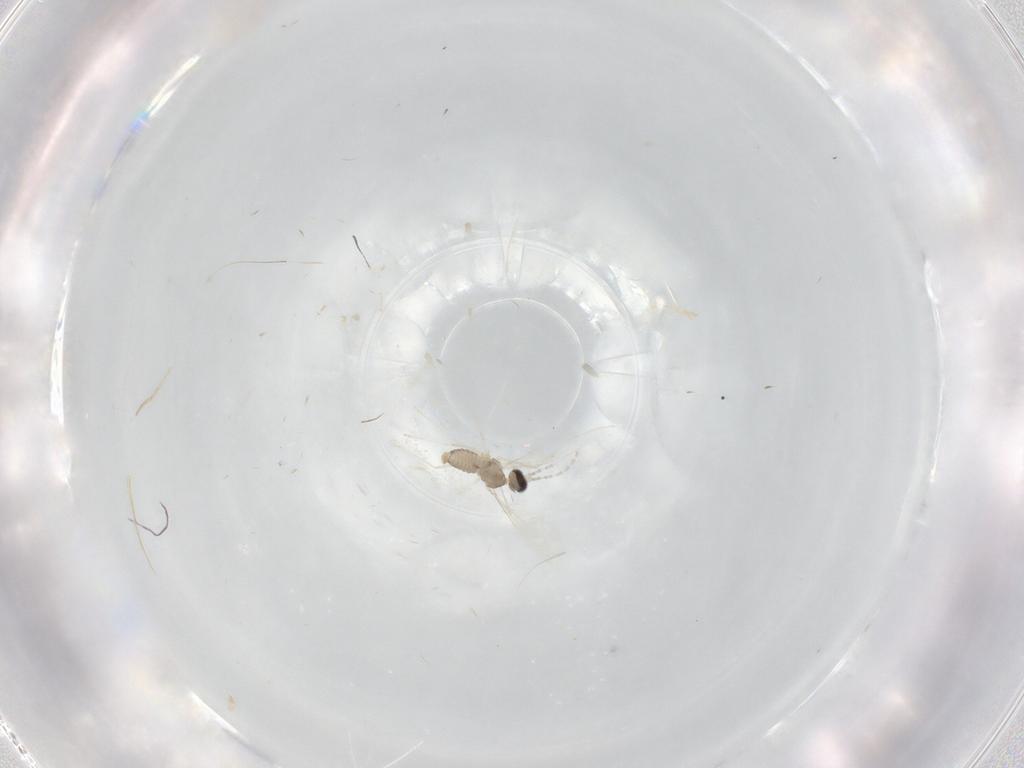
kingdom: Animalia
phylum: Arthropoda
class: Insecta
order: Diptera
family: Cecidomyiidae
